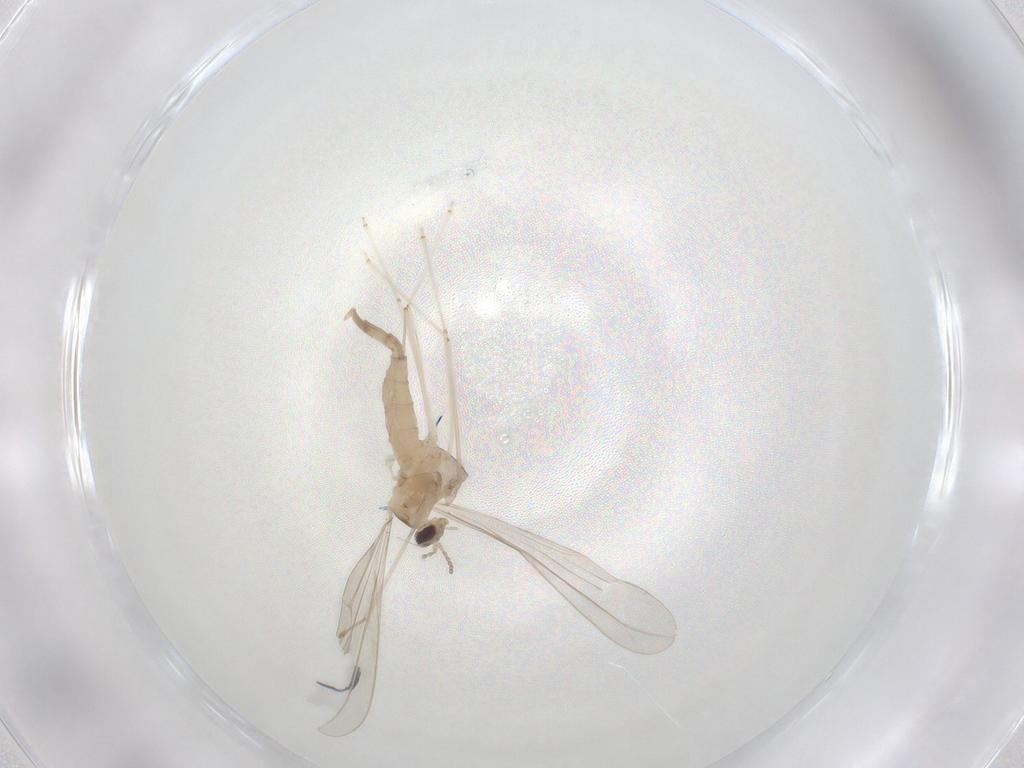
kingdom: Animalia
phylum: Arthropoda
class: Insecta
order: Diptera
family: Cecidomyiidae
